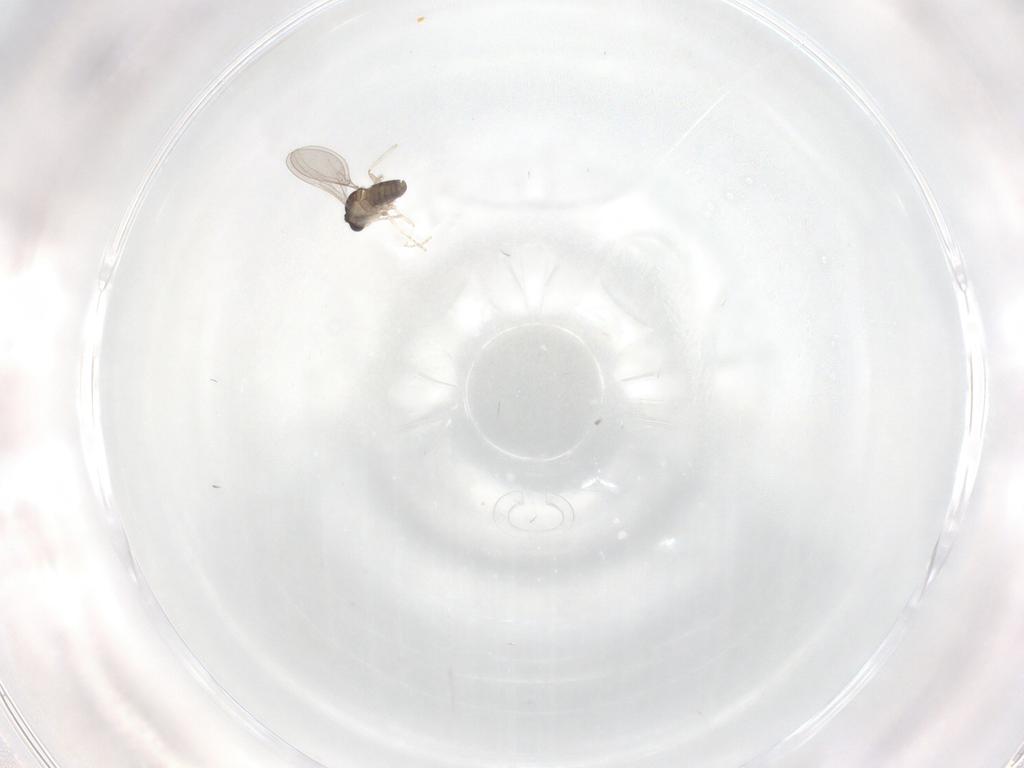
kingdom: Animalia
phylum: Arthropoda
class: Insecta
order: Diptera
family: Cecidomyiidae
